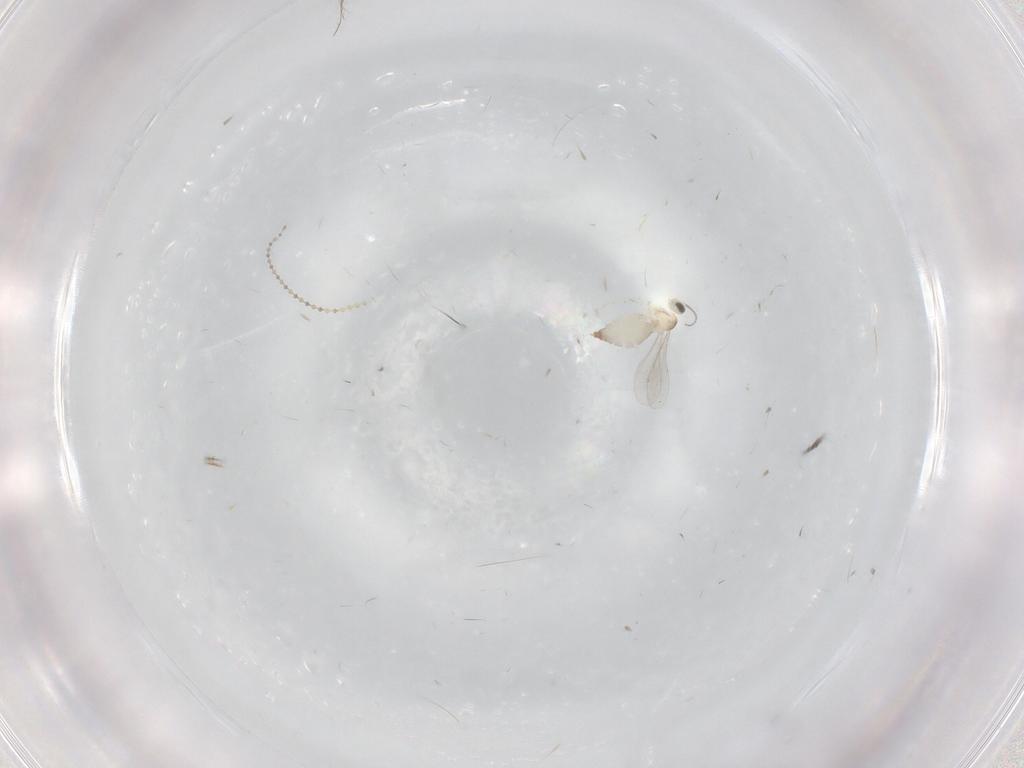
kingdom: Animalia
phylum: Arthropoda
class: Insecta
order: Diptera
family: Cecidomyiidae
